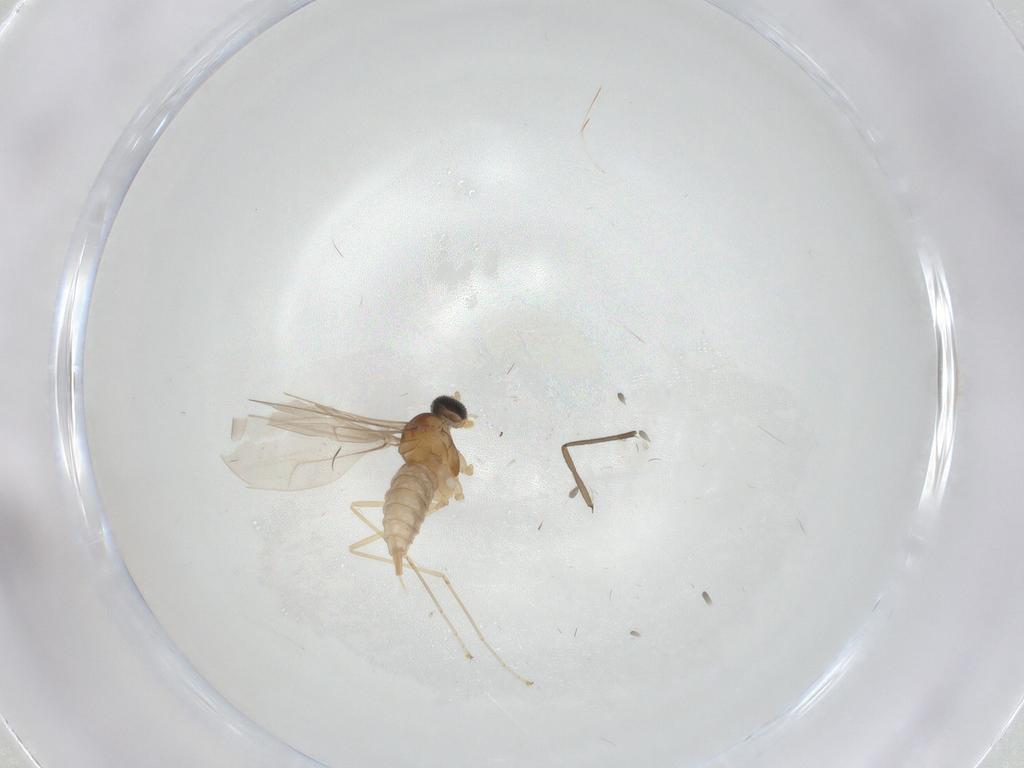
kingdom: Animalia
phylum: Arthropoda
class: Insecta
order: Diptera
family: Cecidomyiidae
